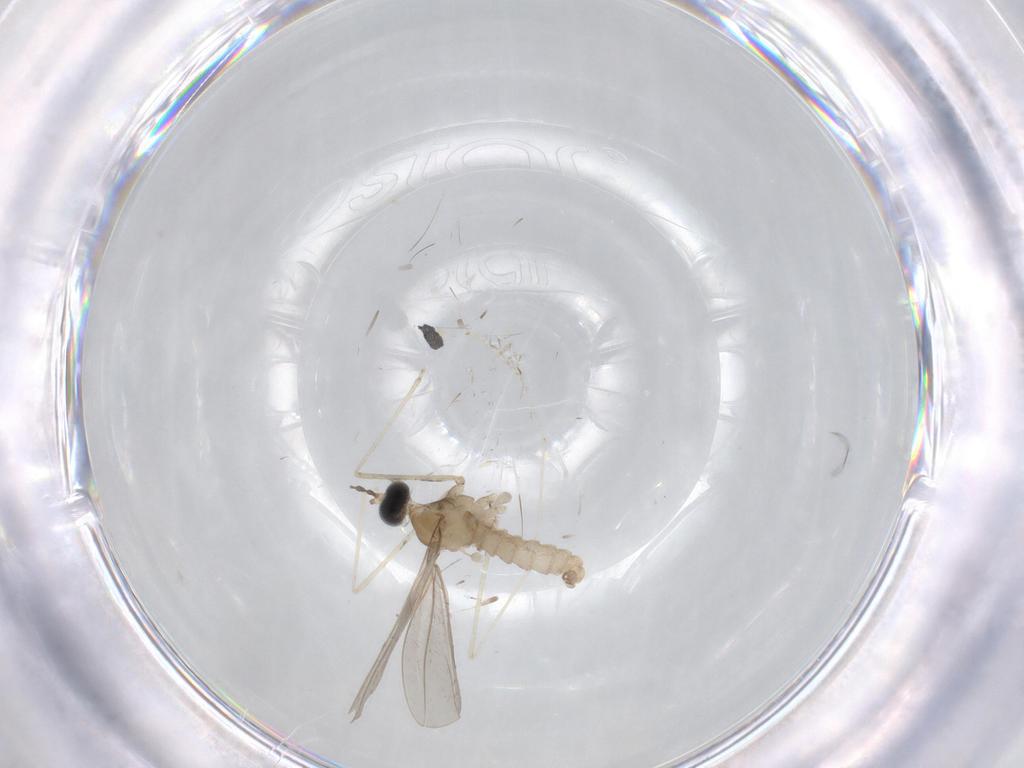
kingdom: Animalia
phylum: Arthropoda
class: Insecta
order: Diptera
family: Cecidomyiidae
